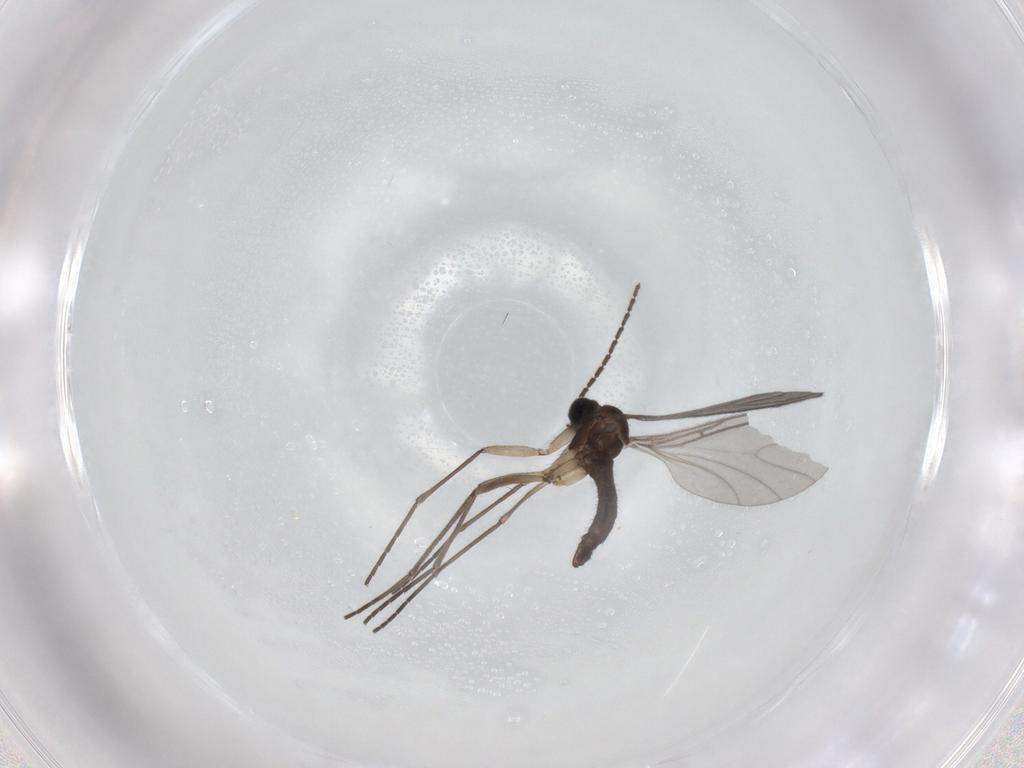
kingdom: Animalia
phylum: Arthropoda
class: Insecta
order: Diptera
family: Sciaridae
